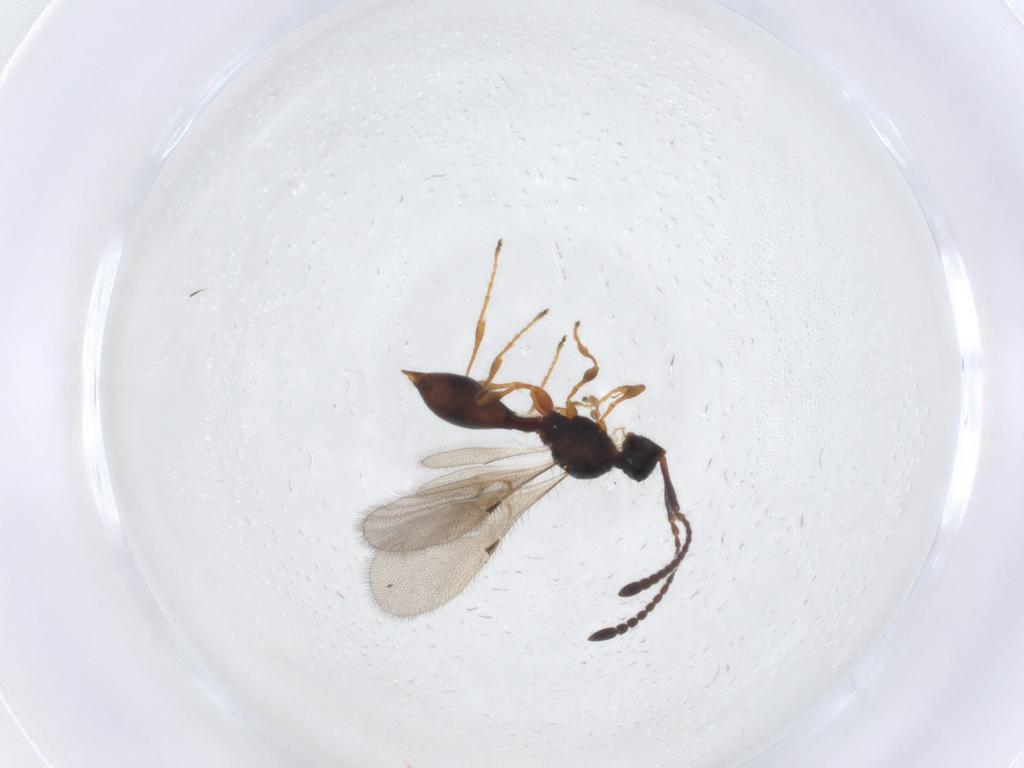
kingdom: Animalia
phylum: Arthropoda
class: Insecta
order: Hymenoptera
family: Diapriidae
